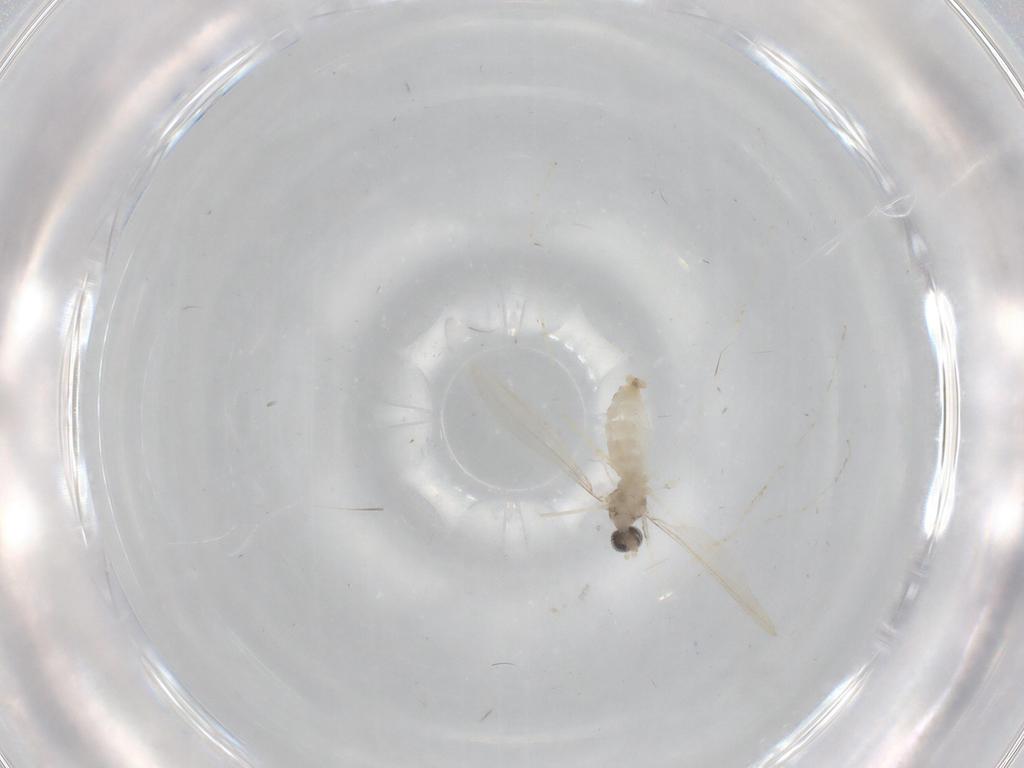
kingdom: Animalia
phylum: Arthropoda
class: Insecta
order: Diptera
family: Cecidomyiidae
